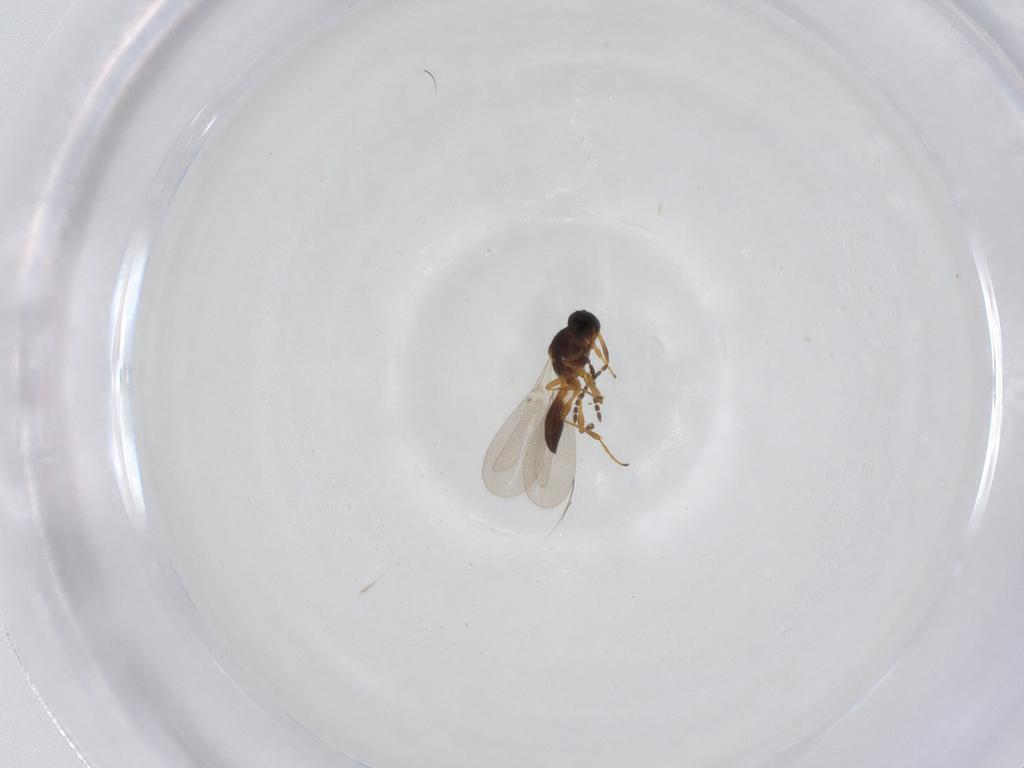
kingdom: Animalia
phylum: Arthropoda
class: Insecta
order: Hymenoptera
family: Platygastridae
